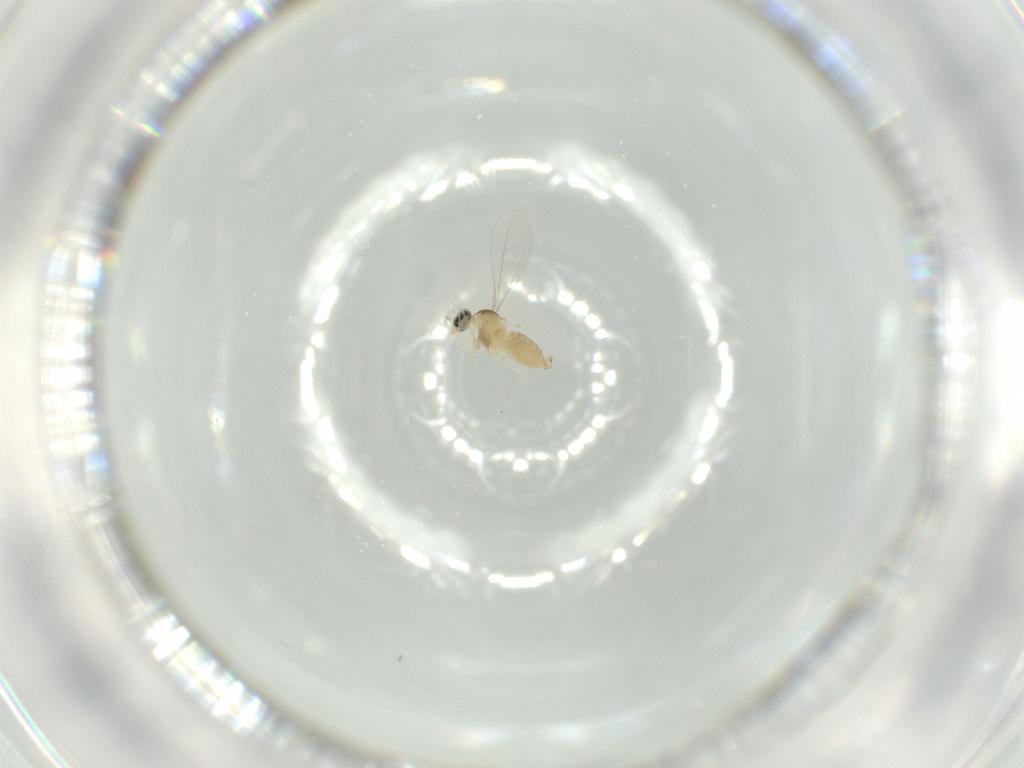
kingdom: Animalia
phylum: Arthropoda
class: Insecta
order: Diptera
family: Cecidomyiidae
